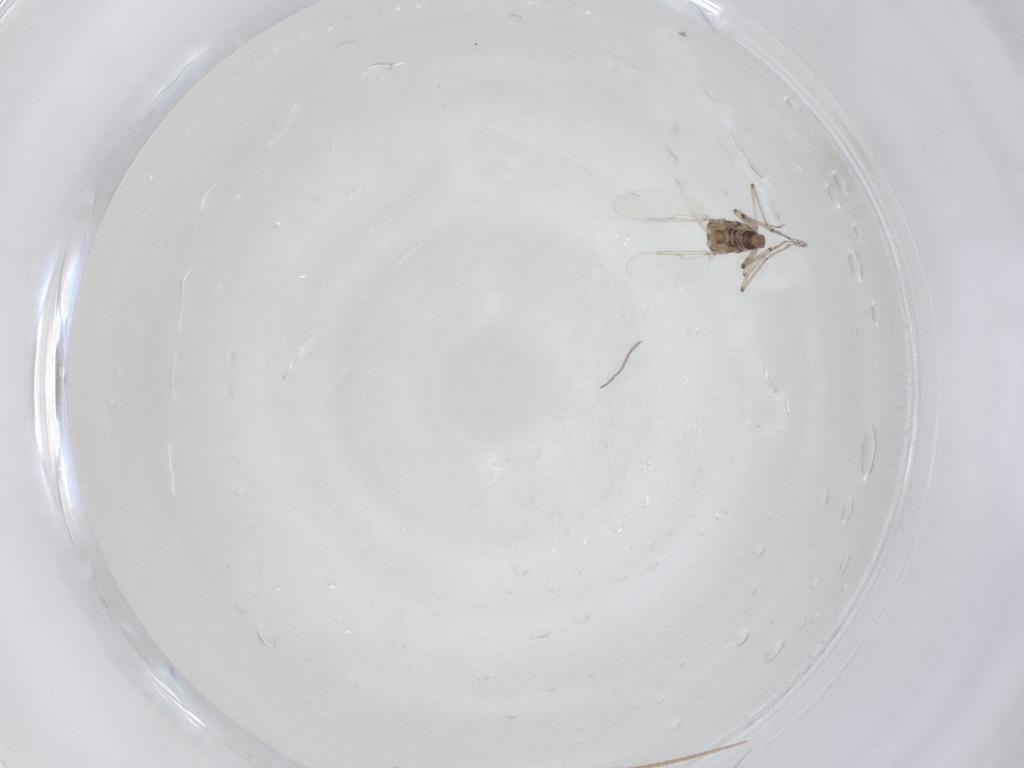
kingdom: Animalia
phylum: Arthropoda
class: Insecta
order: Diptera
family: Ceratopogonidae
